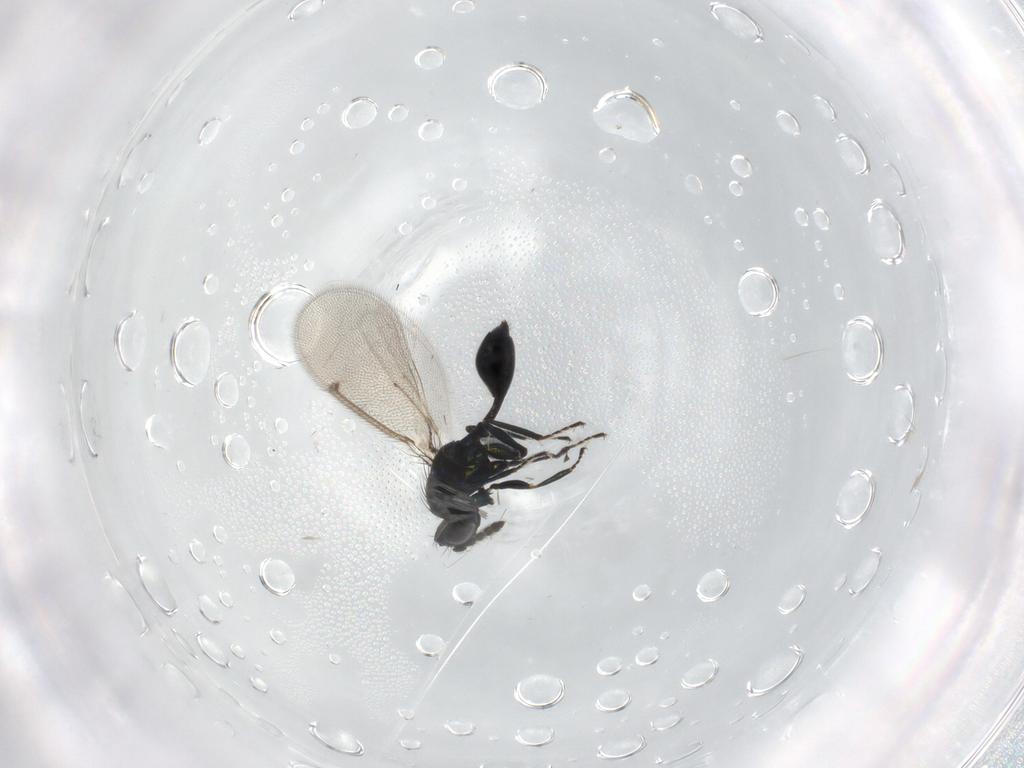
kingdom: Animalia
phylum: Arthropoda
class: Insecta
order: Hymenoptera
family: Eulophidae
